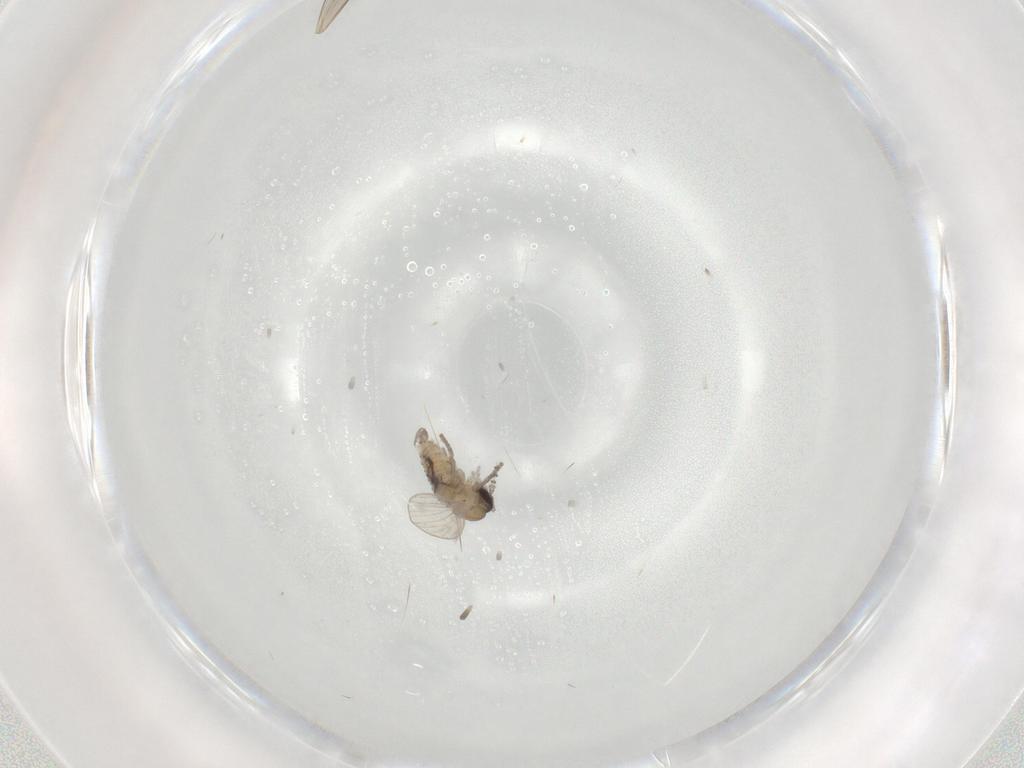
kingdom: Animalia
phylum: Arthropoda
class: Insecta
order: Diptera
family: Psychodidae
